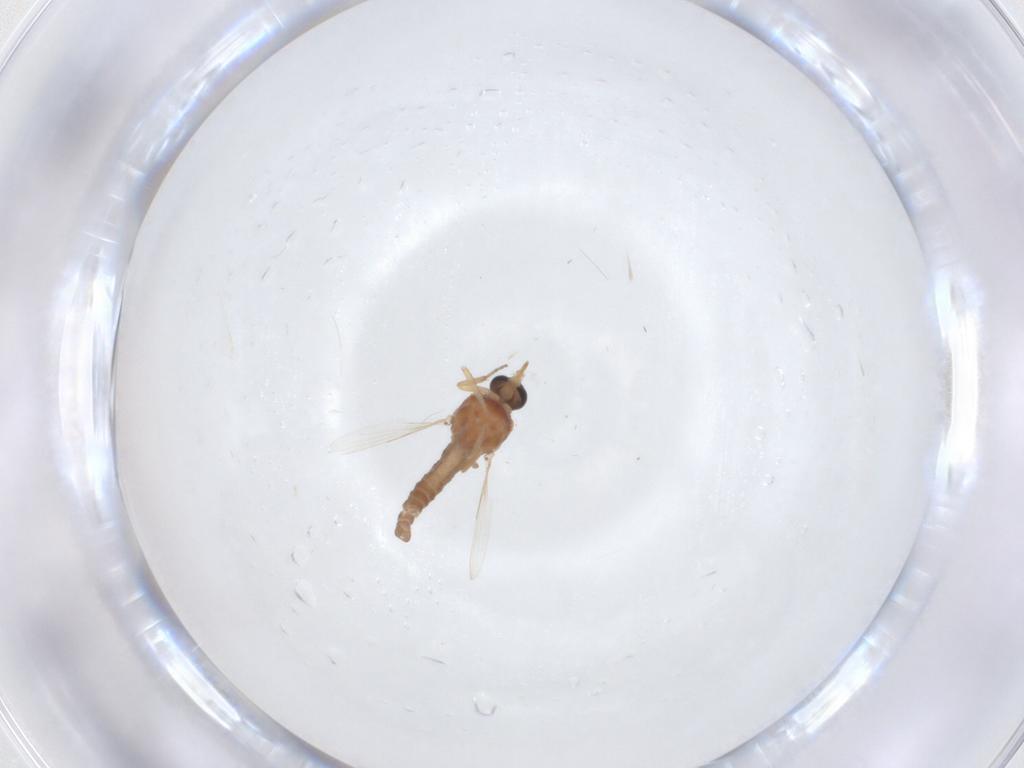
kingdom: Animalia
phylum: Arthropoda
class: Insecta
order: Diptera
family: Ceratopogonidae
